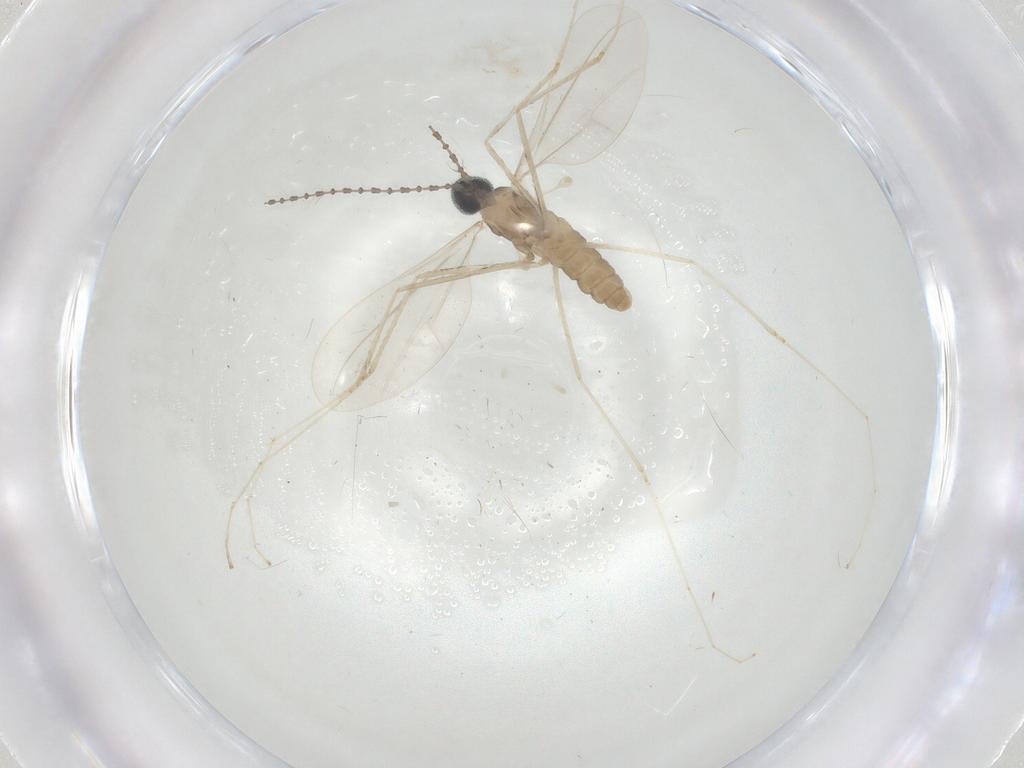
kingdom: Animalia
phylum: Arthropoda
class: Insecta
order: Diptera
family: Cecidomyiidae
